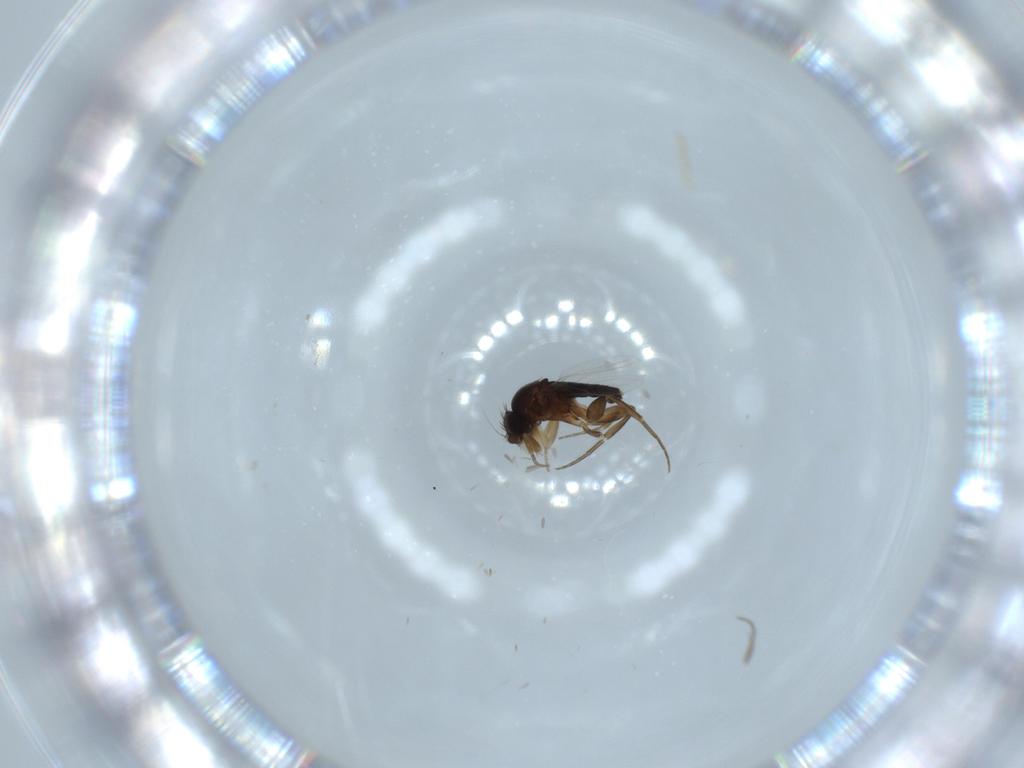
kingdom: Animalia
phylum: Arthropoda
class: Insecta
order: Diptera
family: Phoridae
